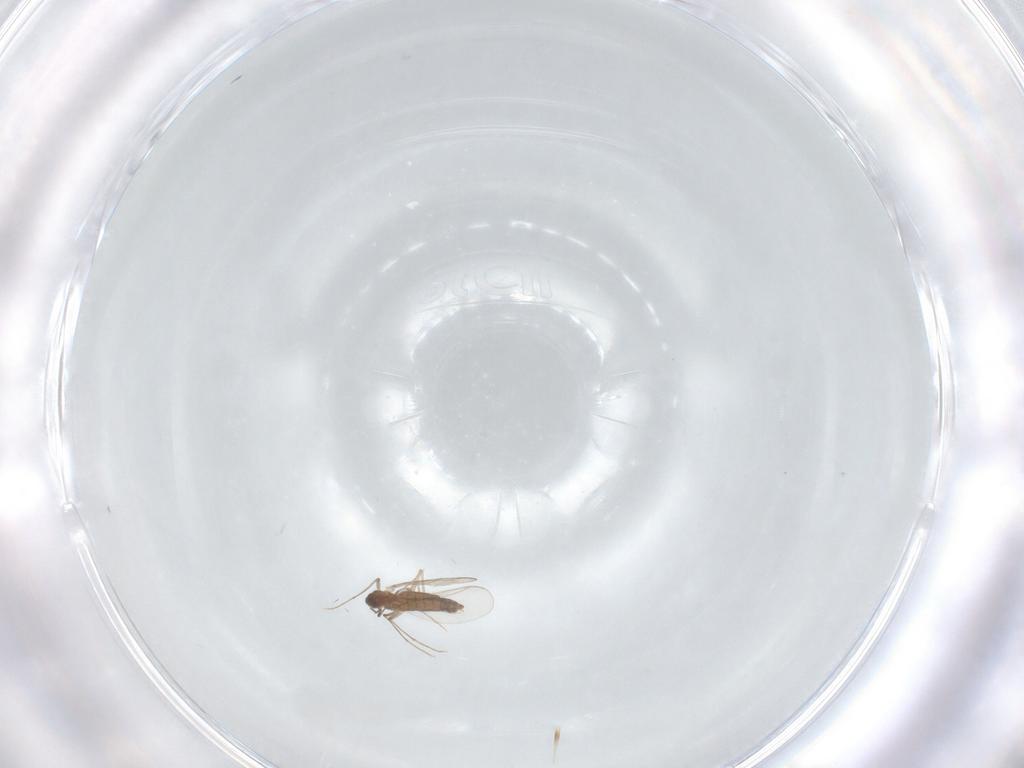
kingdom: Animalia
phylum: Arthropoda
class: Insecta
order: Diptera
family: Chironomidae
